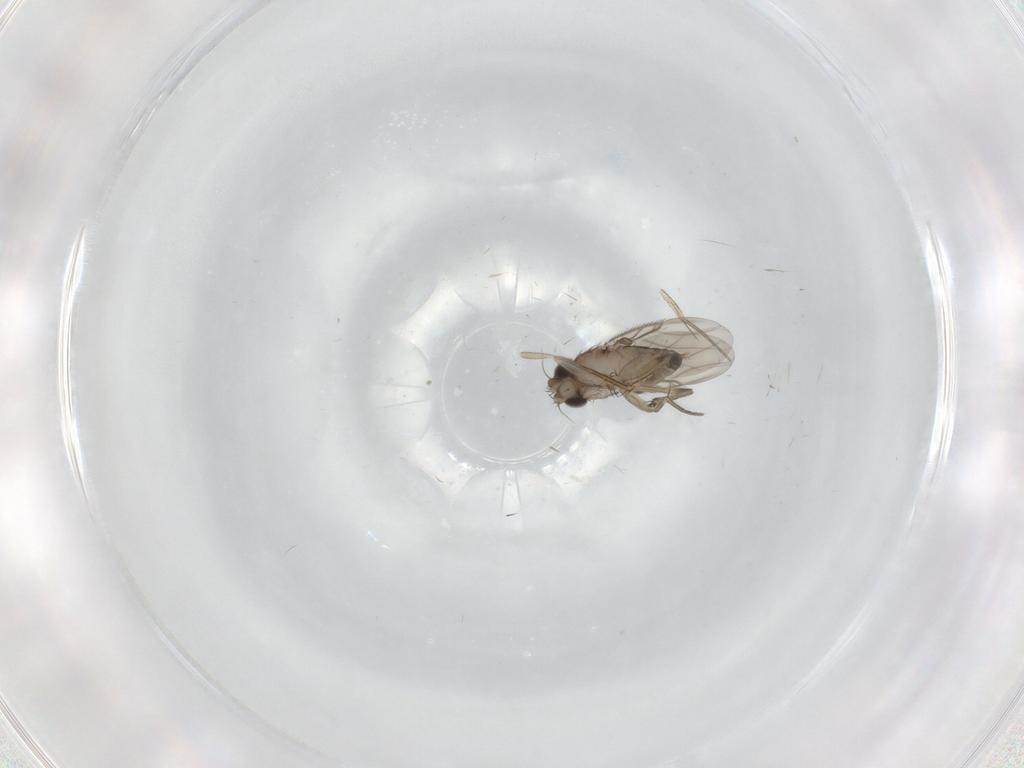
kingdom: Animalia
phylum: Arthropoda
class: Insecta
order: Diptera
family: Phoridae
